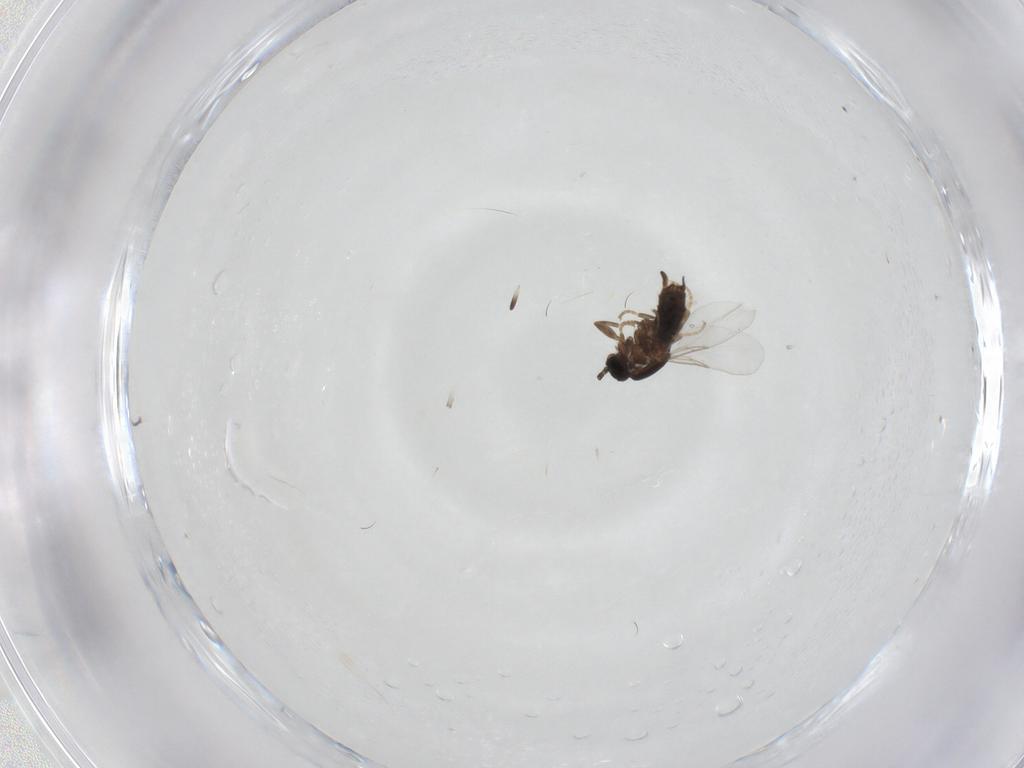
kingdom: Animalia
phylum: Arthropoda
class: Insecta
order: Diptera
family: Scatopsidae
